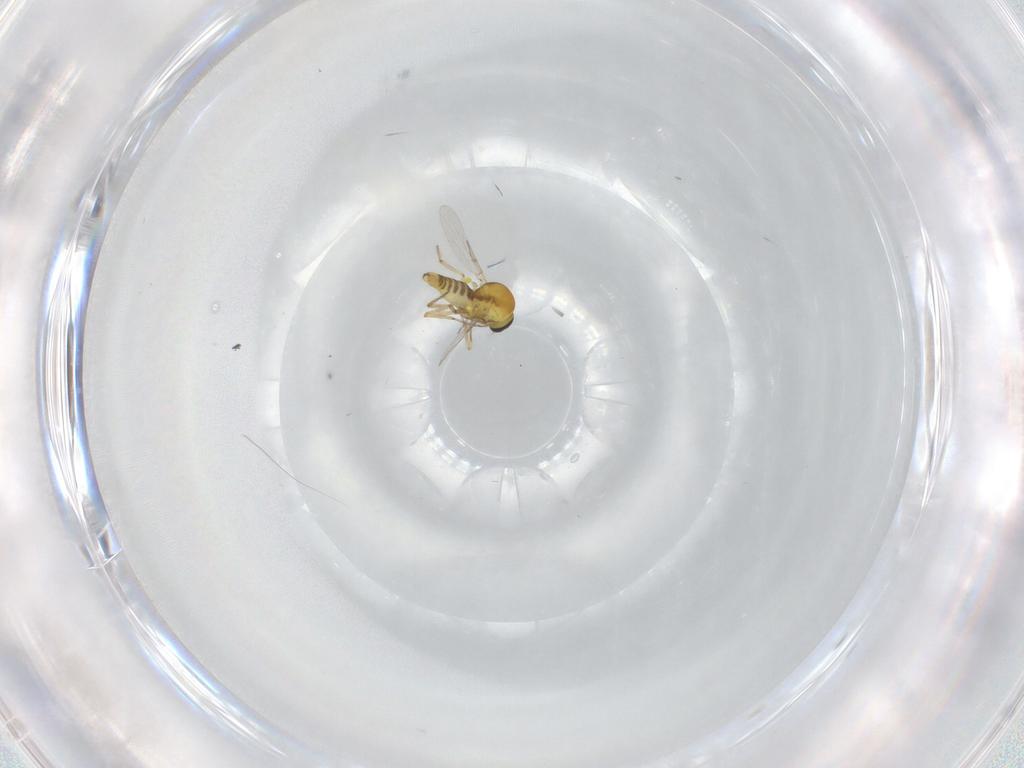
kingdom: Animalia
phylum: Arthropoda
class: Insecta
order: Diptera
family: Ceratopogonidae
